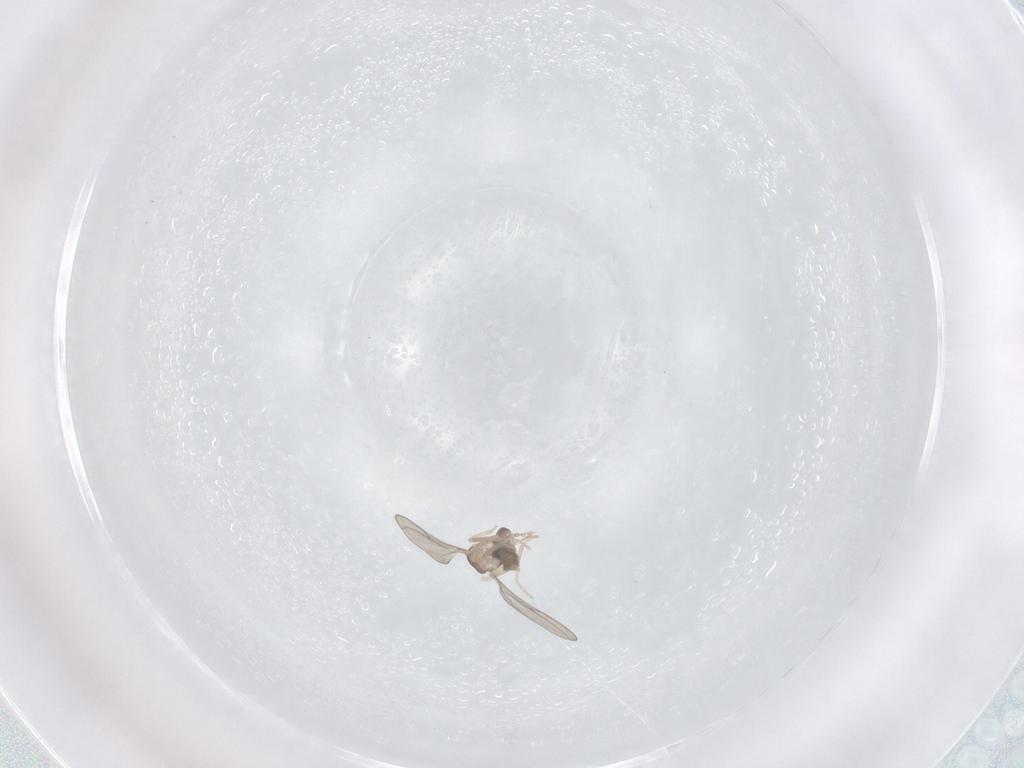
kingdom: Animalia
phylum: Arthropoda
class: Insecta
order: Diptera
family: Cecidomyiidae
